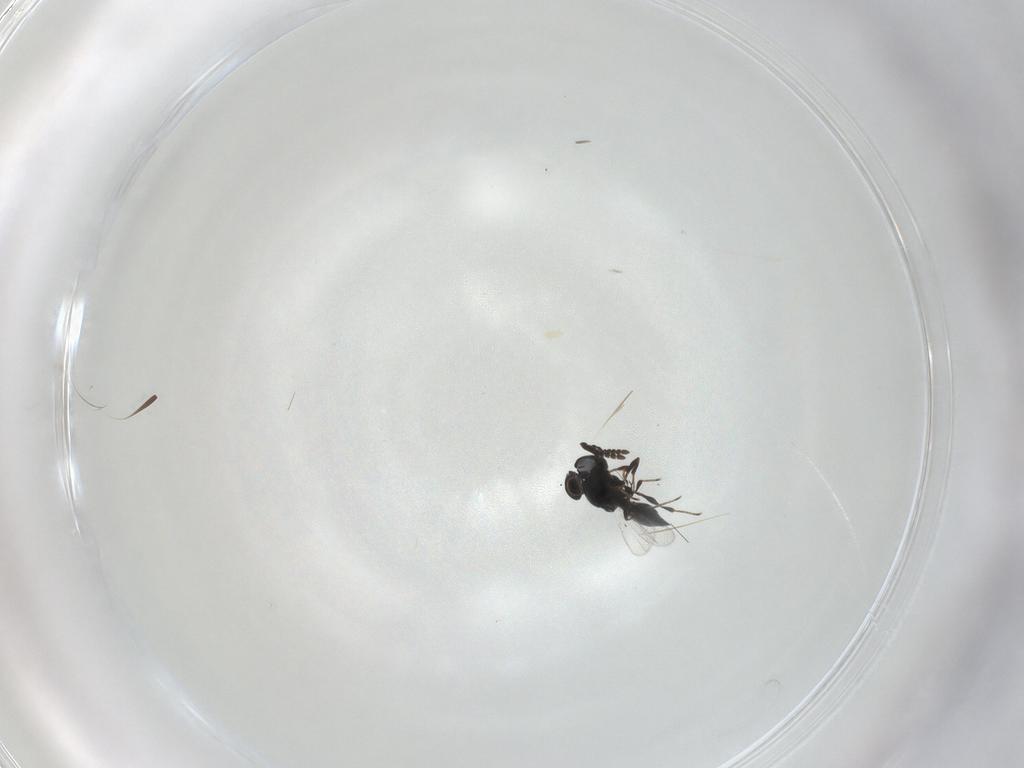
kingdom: Animalia
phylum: Arthropoda
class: Insecta
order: Hymenoptera
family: Platygastridae
